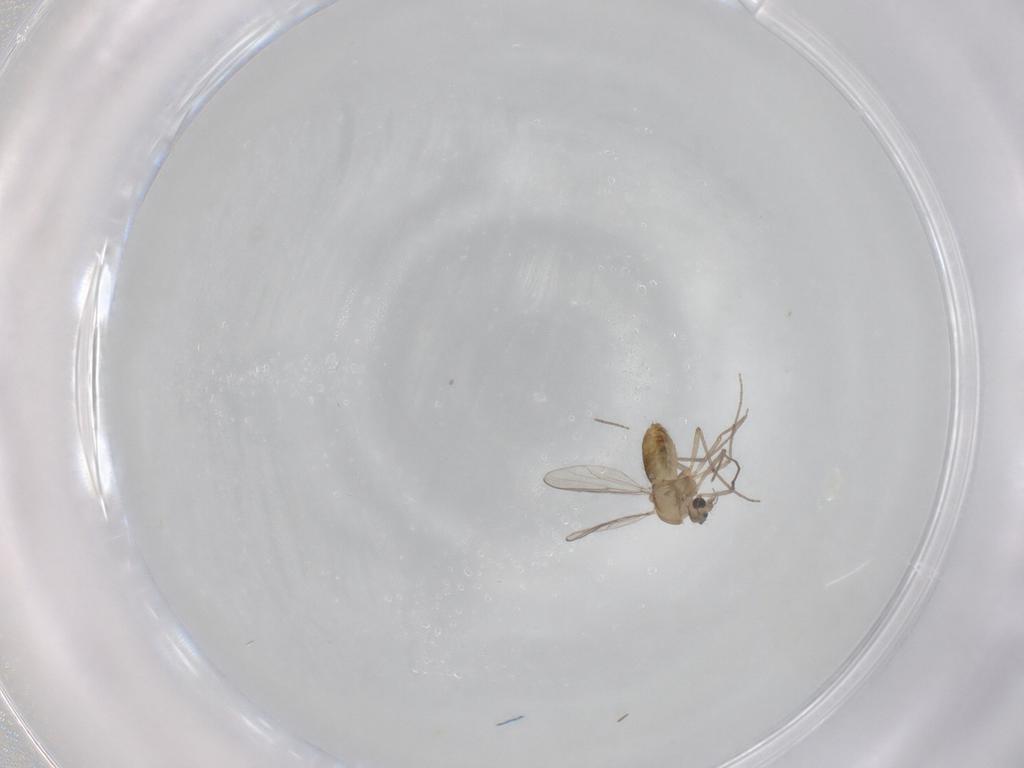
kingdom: Animalia
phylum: Arthropoda
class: Insecta
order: Diptera
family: Chironomidae
